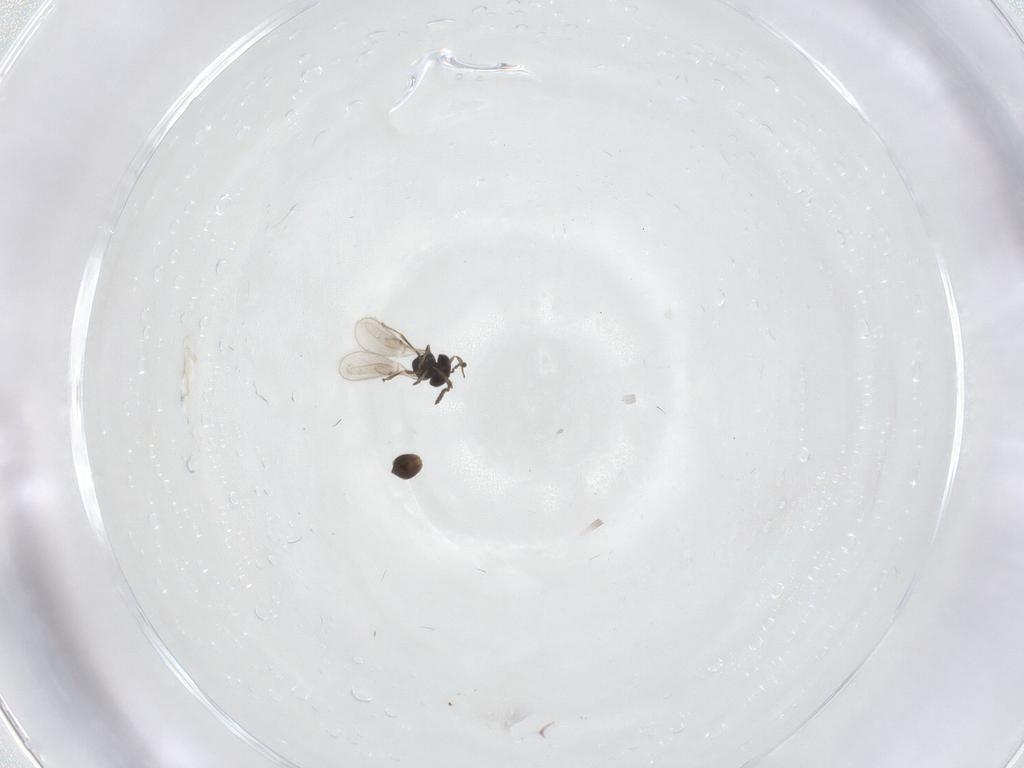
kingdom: Animalia
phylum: Arthropoda
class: Insecta
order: Hymenoptera
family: Scelionidae
